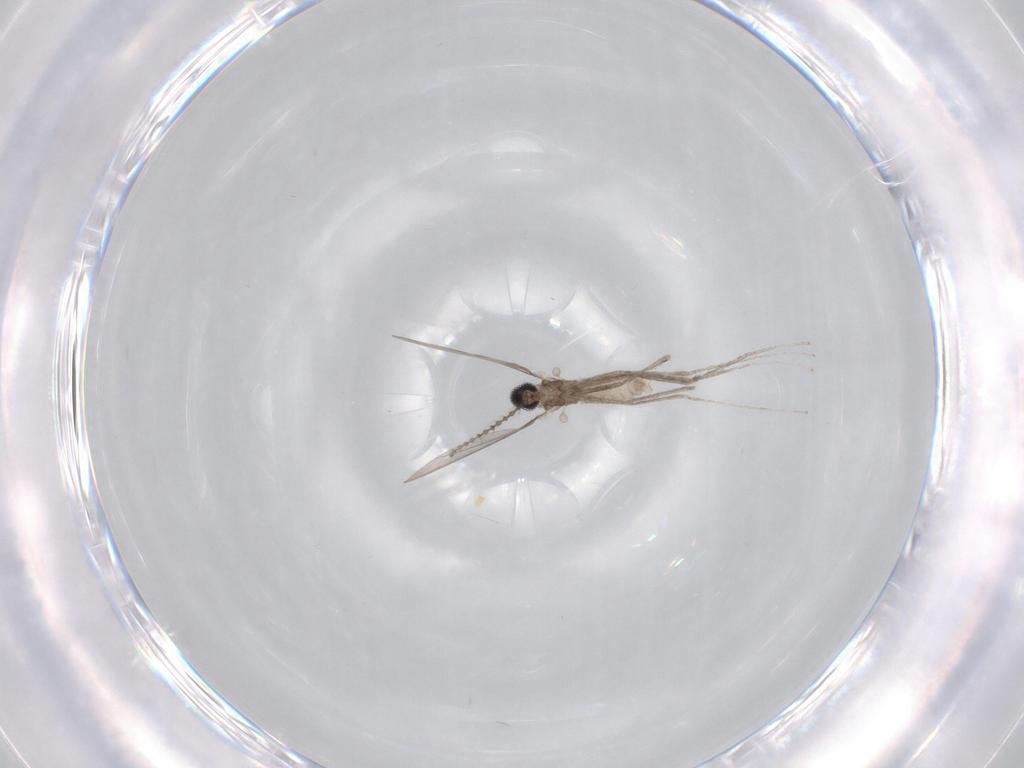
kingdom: Animalia
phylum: Arthropoda
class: Insecta
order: Diptera
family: Cecidomyiidae
